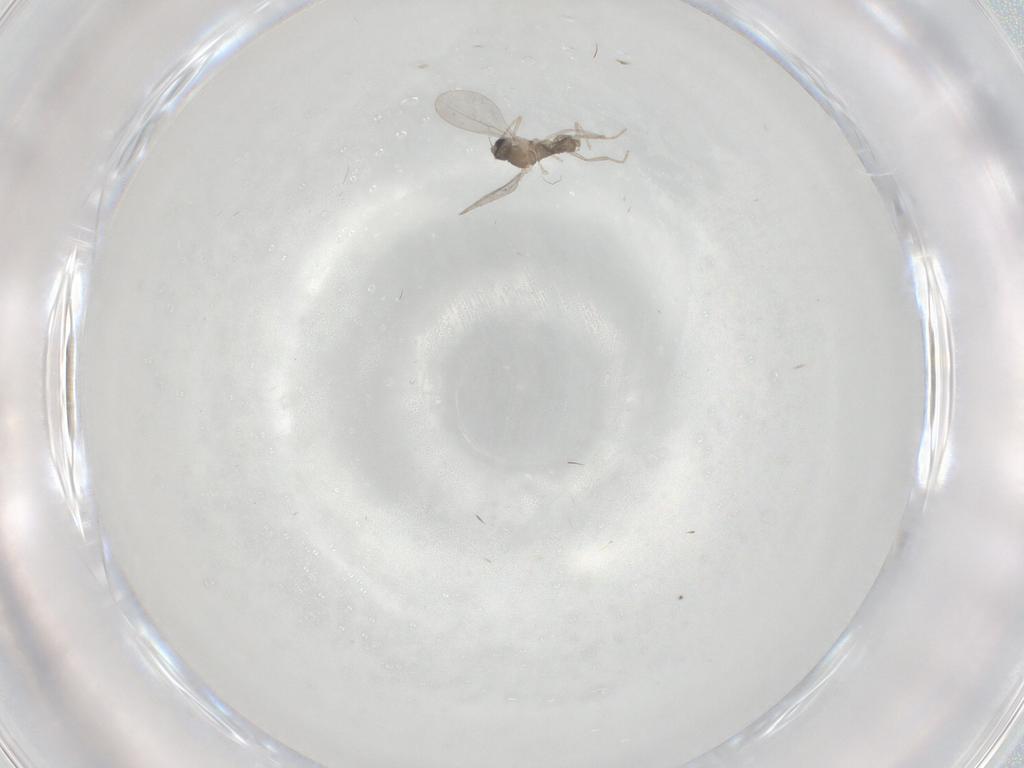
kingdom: Animalia
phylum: Arthropoda
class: Insecta
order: Diptera
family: Cecidomyiidae
